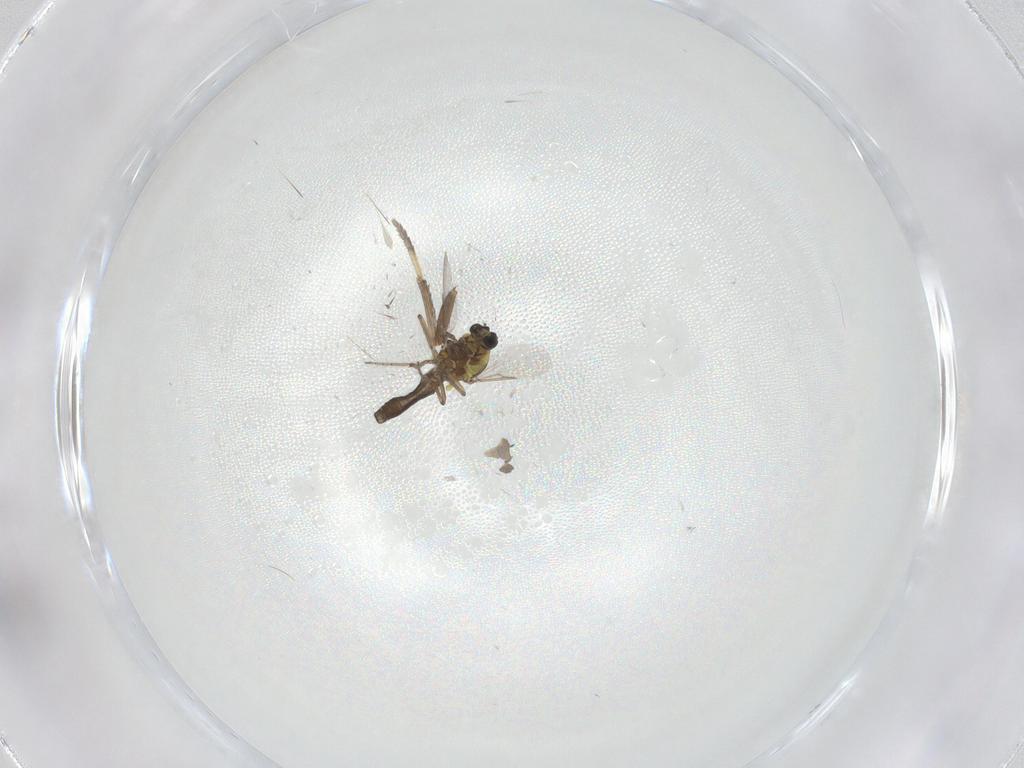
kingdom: Animalia
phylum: Arthropoda
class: Insecta
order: Diptera
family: Ceratopogonidae
